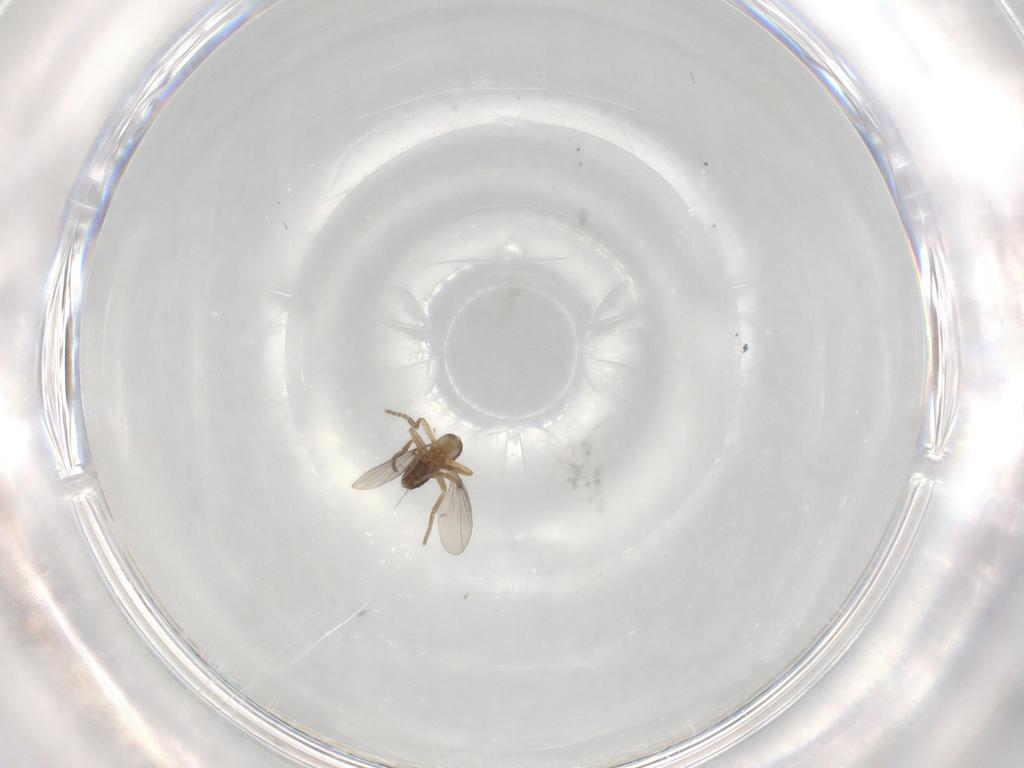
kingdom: Animalia
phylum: Arthropoda
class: Insecta
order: Diptera
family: Phoridae
